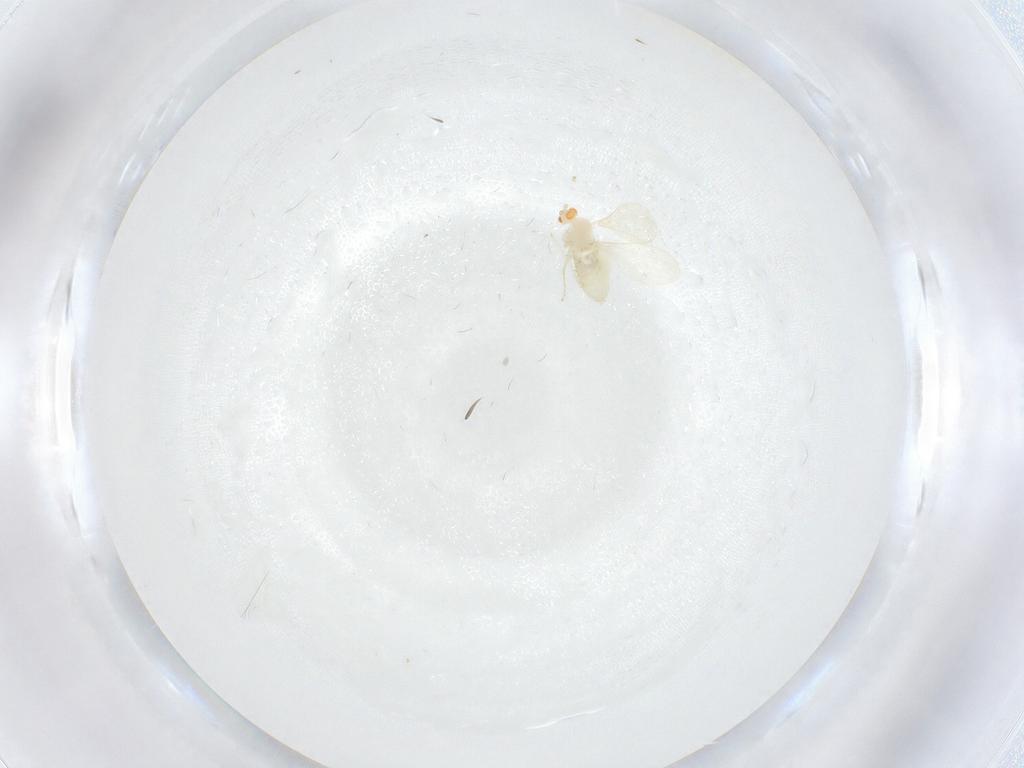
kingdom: Animalia
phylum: Arthropoda
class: Insecta
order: Diptera
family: Cecidomyiidae
